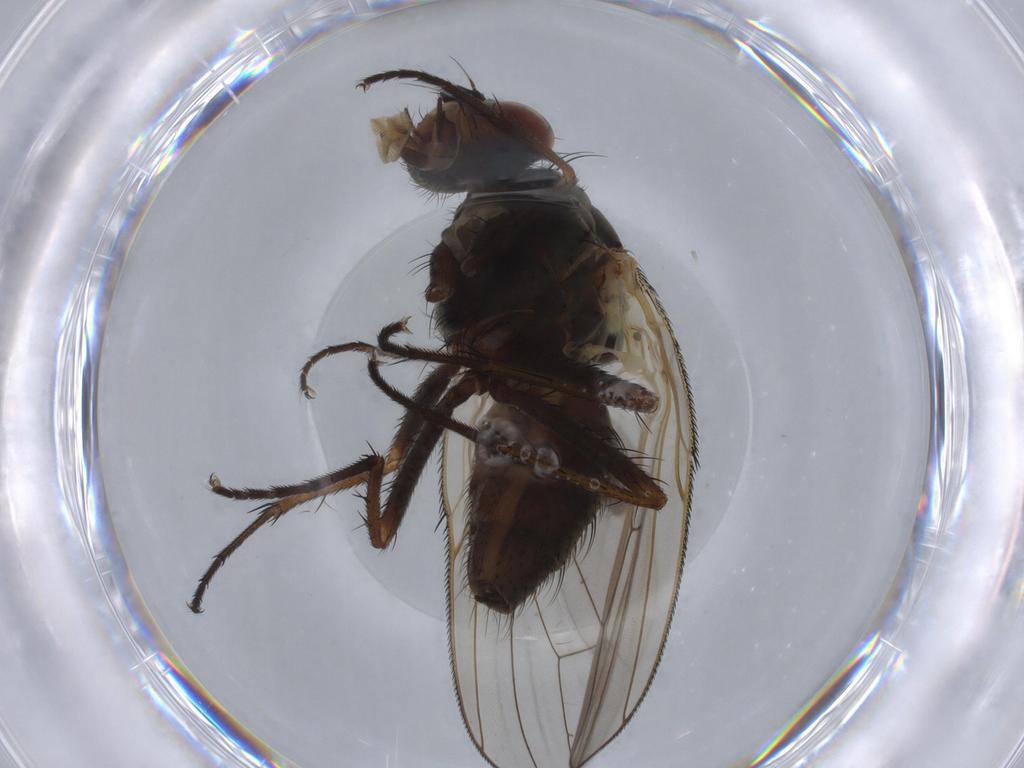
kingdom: Animalia
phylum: Arthropoda
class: Insecta
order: Diptera
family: Anthomyiidae
